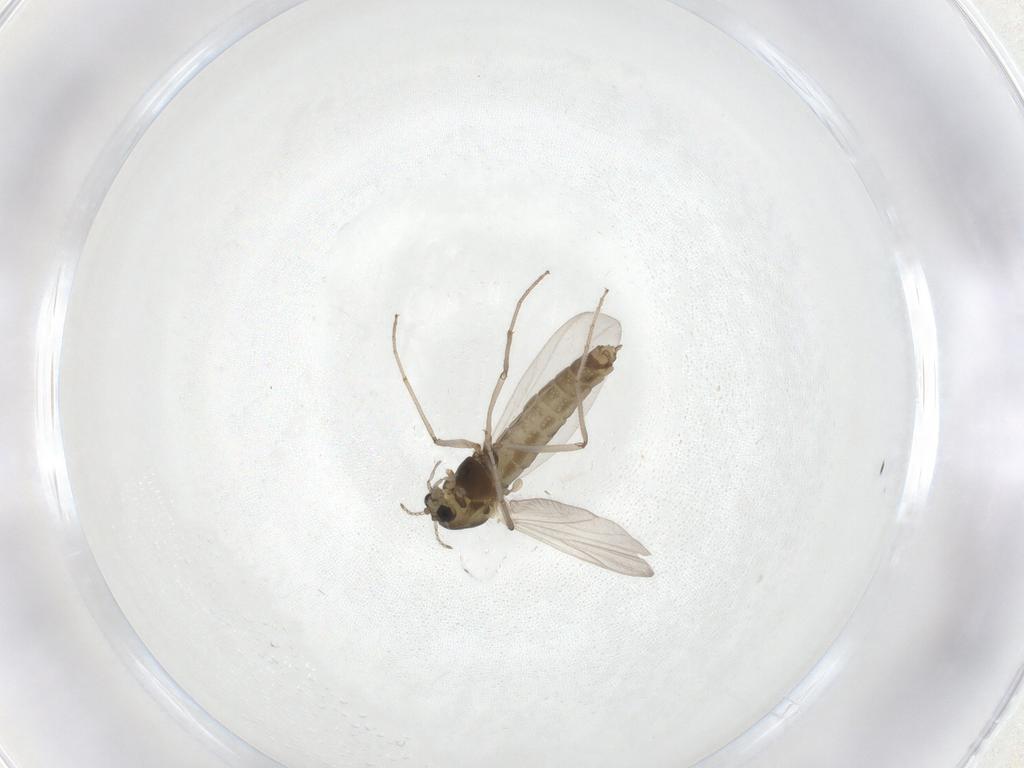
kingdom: Animalia
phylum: Arthropoda
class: Insecta
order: Diptera
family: Chironomidae
